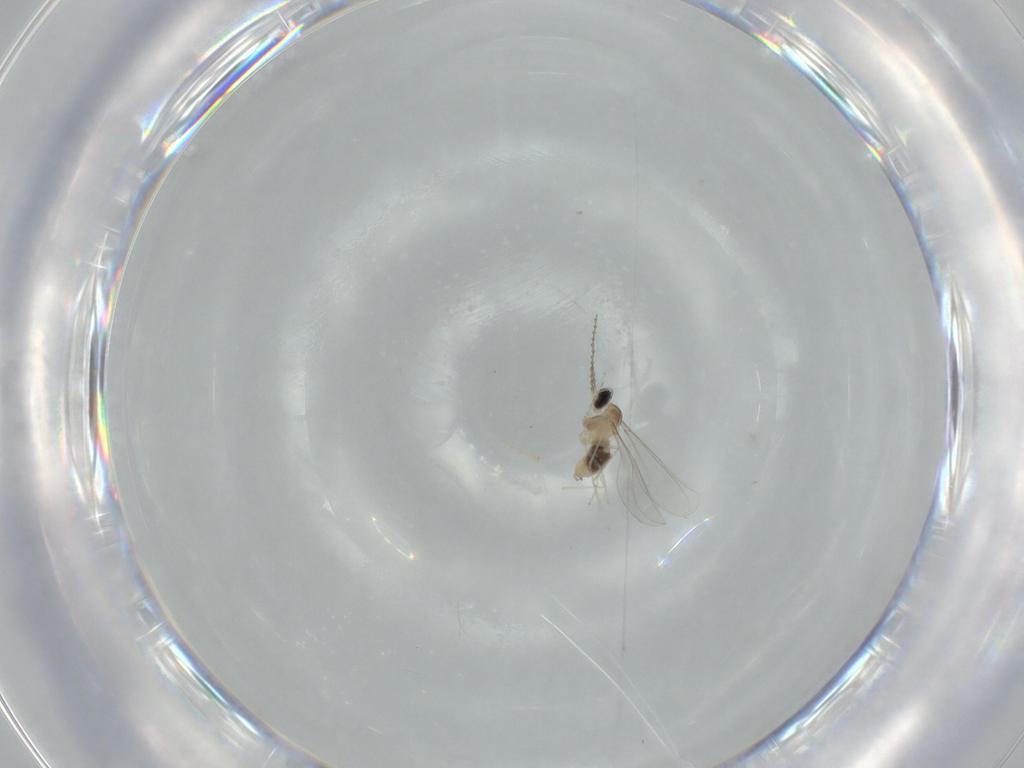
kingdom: Animalia
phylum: Arthropoda
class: Insecta
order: Diptera
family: Cecidomyiidae
